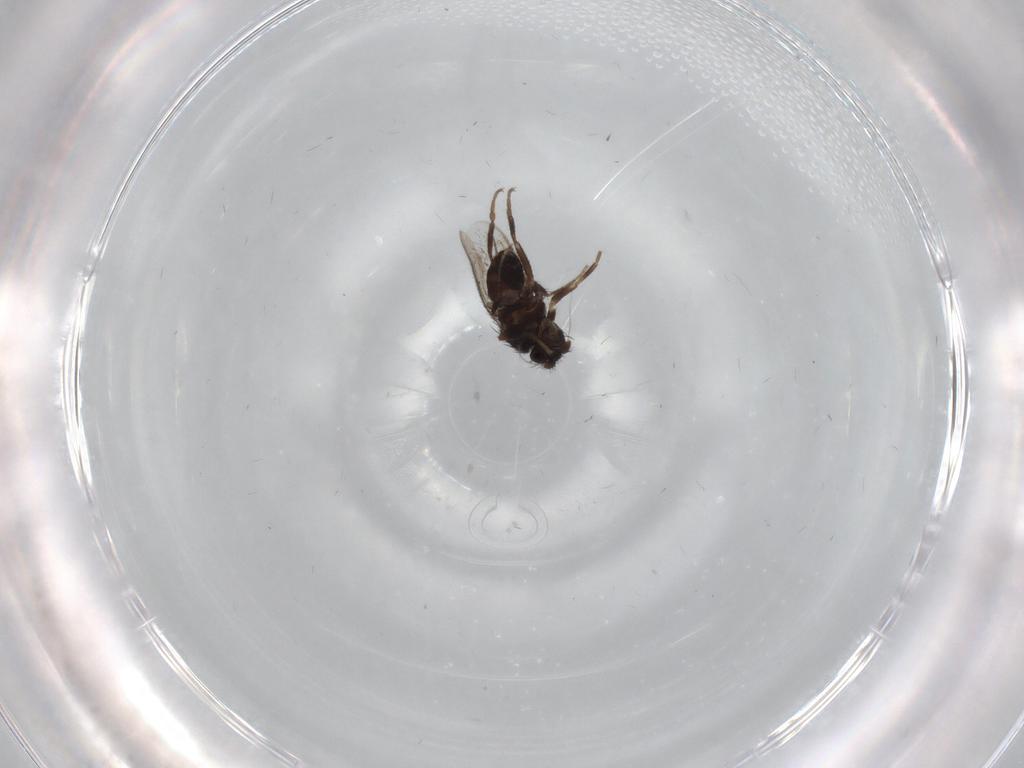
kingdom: Animalia
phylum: Arthropoda
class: Insecta
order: Diptera
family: Sphaeroceridae
